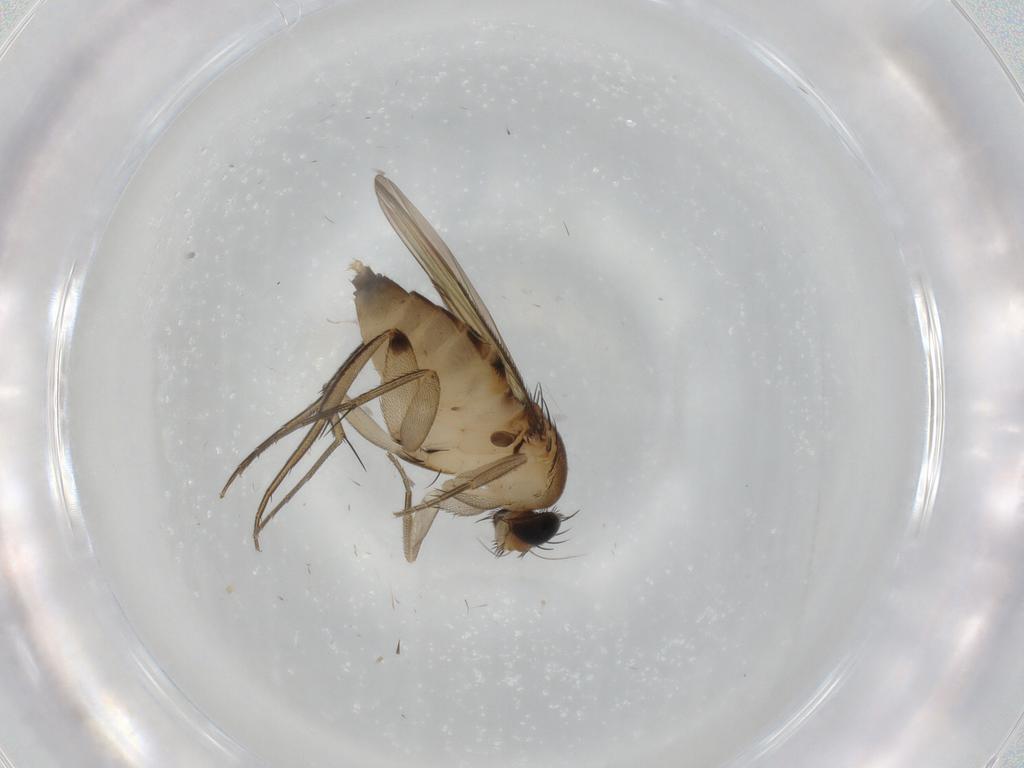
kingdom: Animalia
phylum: Arthropoda
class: Insecta
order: Diptera
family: Phoridae
